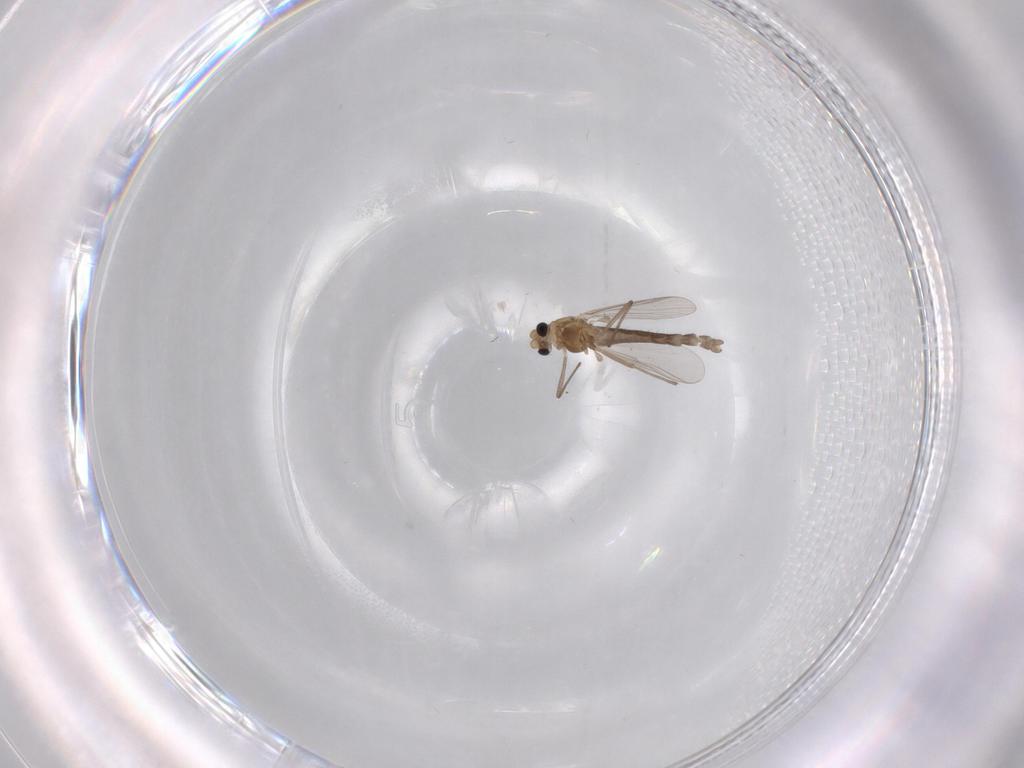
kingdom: Animalia
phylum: Arthropoda
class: Insecta
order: Diptera
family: Chironomidae
